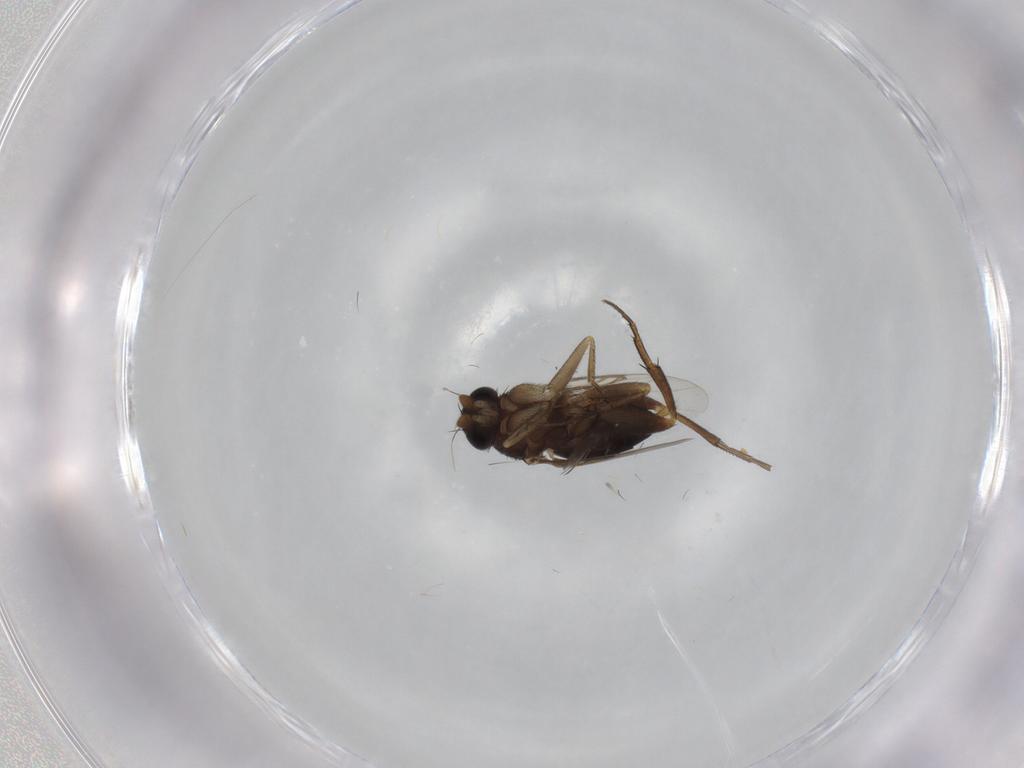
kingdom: Animalia
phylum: Arthropoda
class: Insecta
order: Diptera
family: Phoridae
